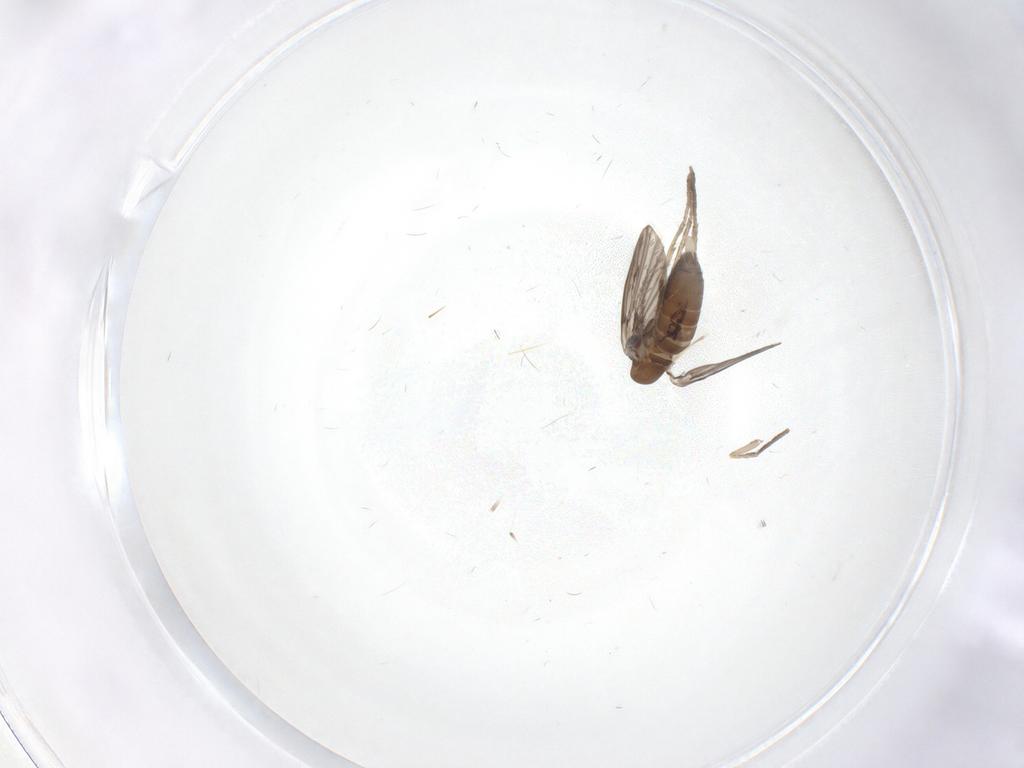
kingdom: Animalia
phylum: Arthropoda
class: Insecta
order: Diptera
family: Psychodidae
